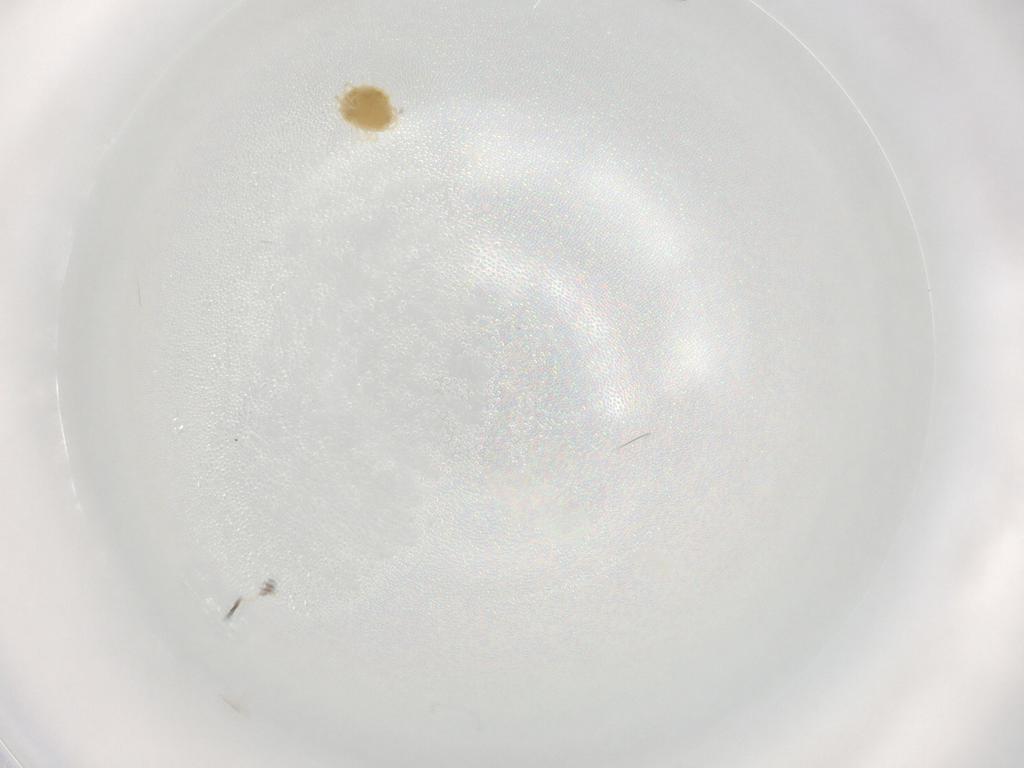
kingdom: Animalia
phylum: Arthropoda
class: Arachnida
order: Trombidiformes
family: Tetranychidae
